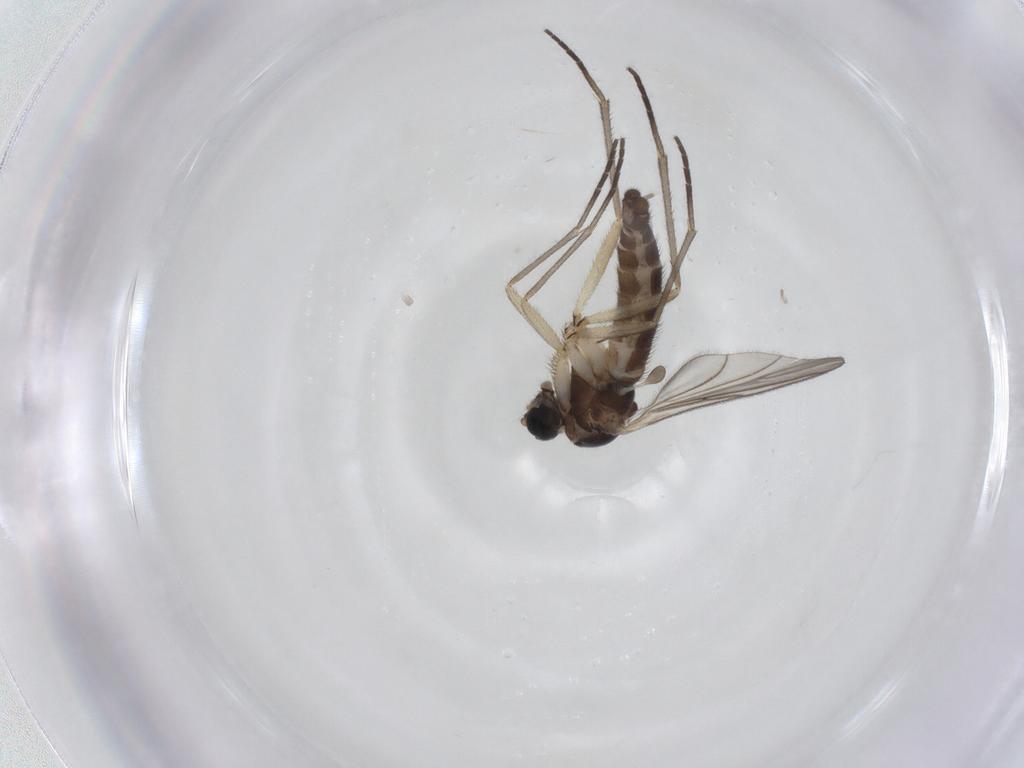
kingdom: Animalia
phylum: Arthropoda
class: Insecta
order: Diptera
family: Sciaridae
